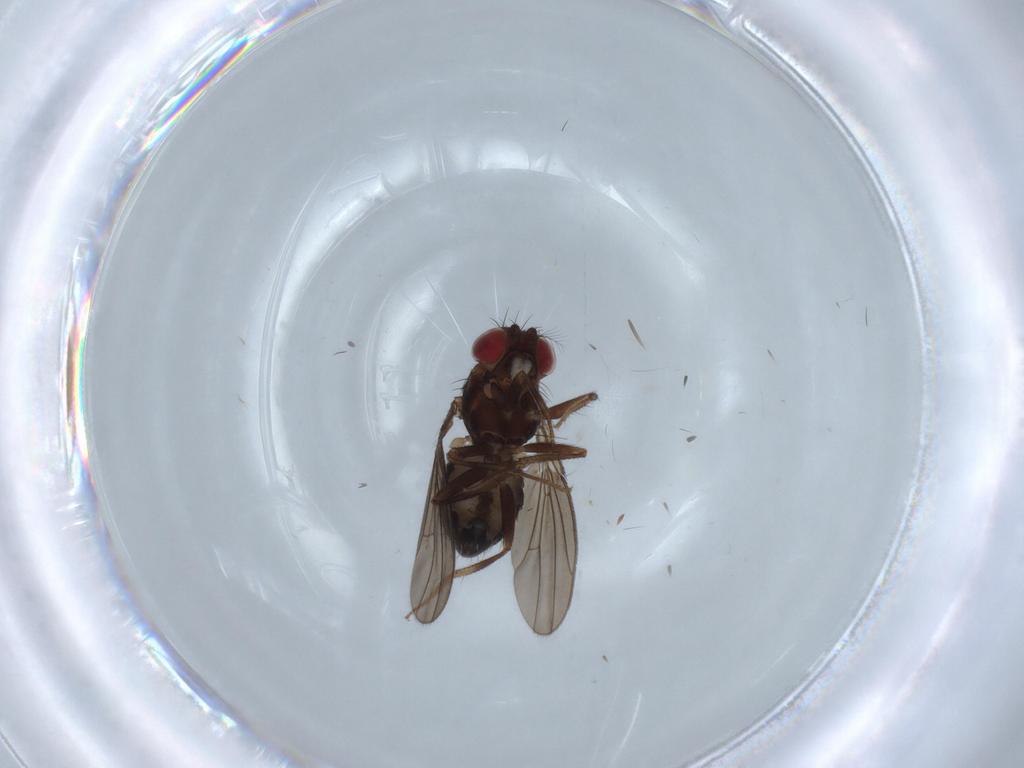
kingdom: Animalia
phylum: Arthropoda
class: Insecta
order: Diptera
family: Drosophilidae
